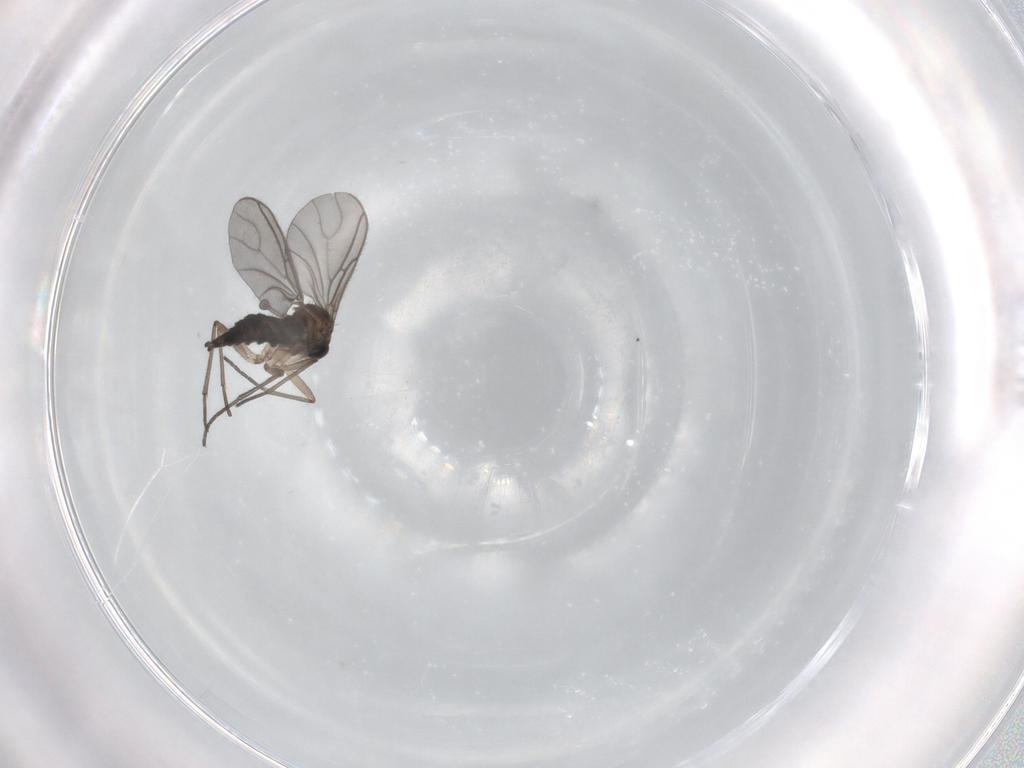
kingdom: Animalia
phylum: Arthropoda
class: Insecta
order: Diptera
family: Sciaridae
